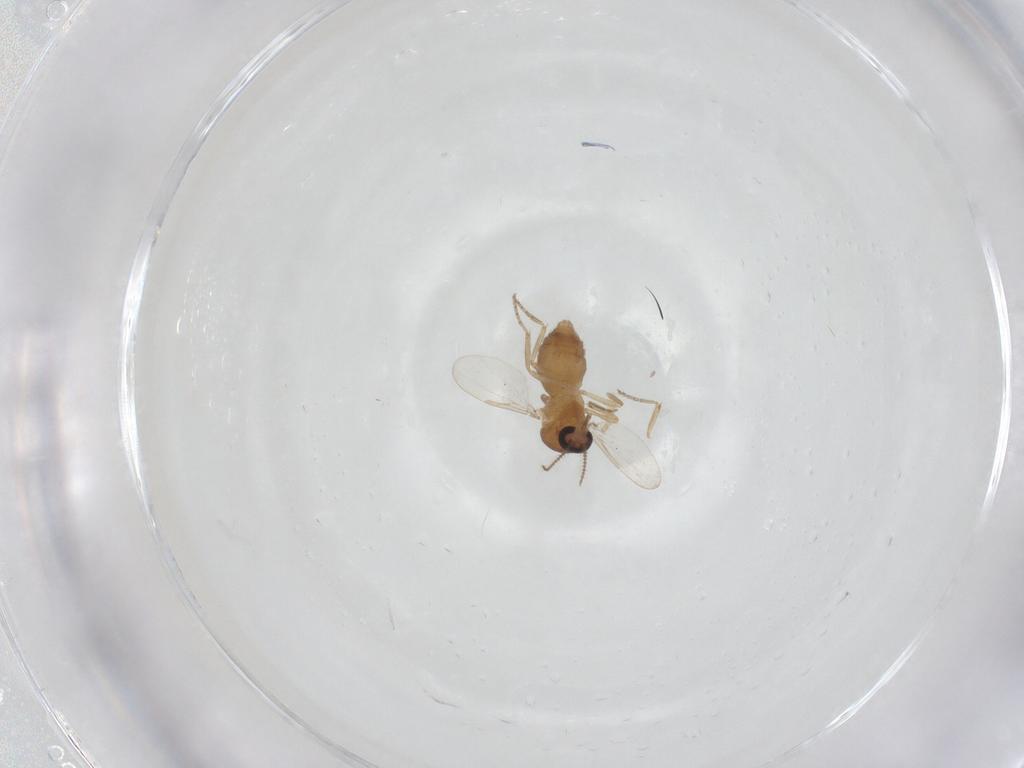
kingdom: Animalia
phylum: Arthropoda
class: Insecta
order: Diptera
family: Ceratopogonidae
